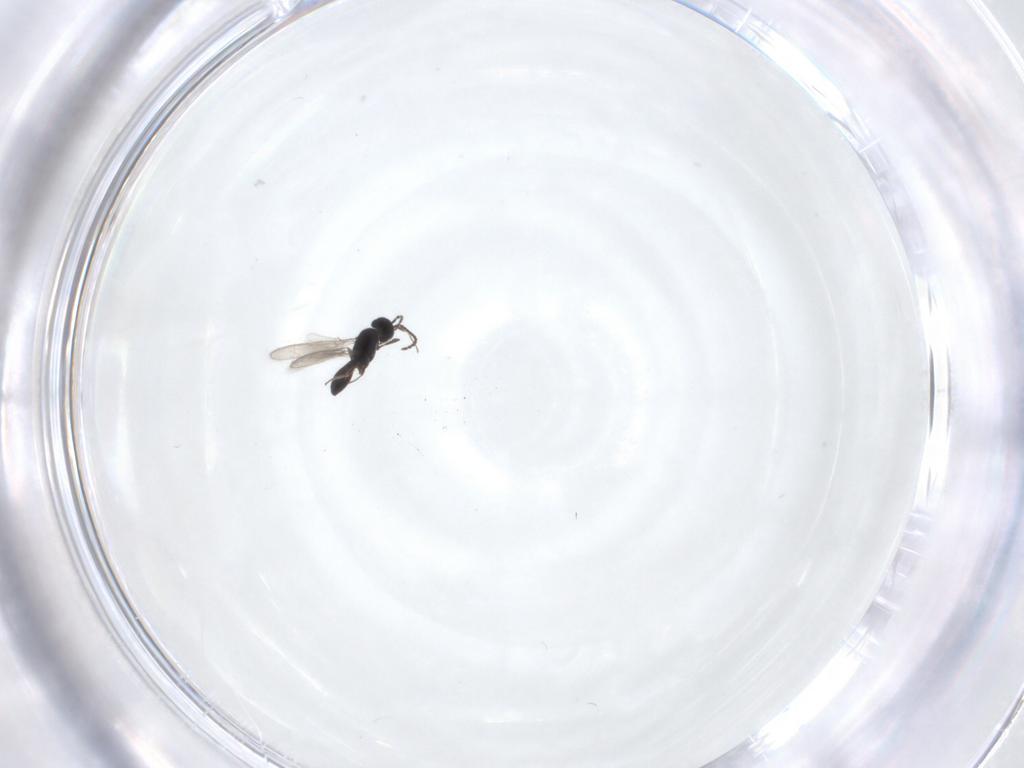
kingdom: Animalia
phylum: Arthropoda
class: Insecta
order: Hymenoptera
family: Scelionidae
